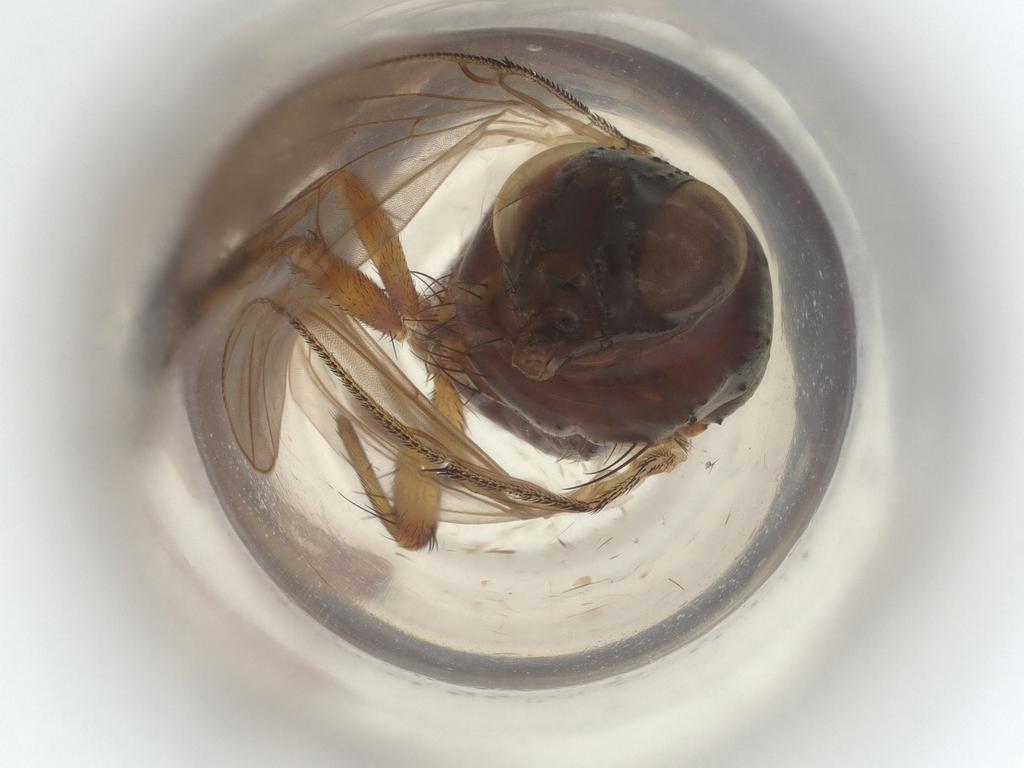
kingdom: Animalia
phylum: Arthropoda
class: Insecta
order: Diptera
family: Muscidae
